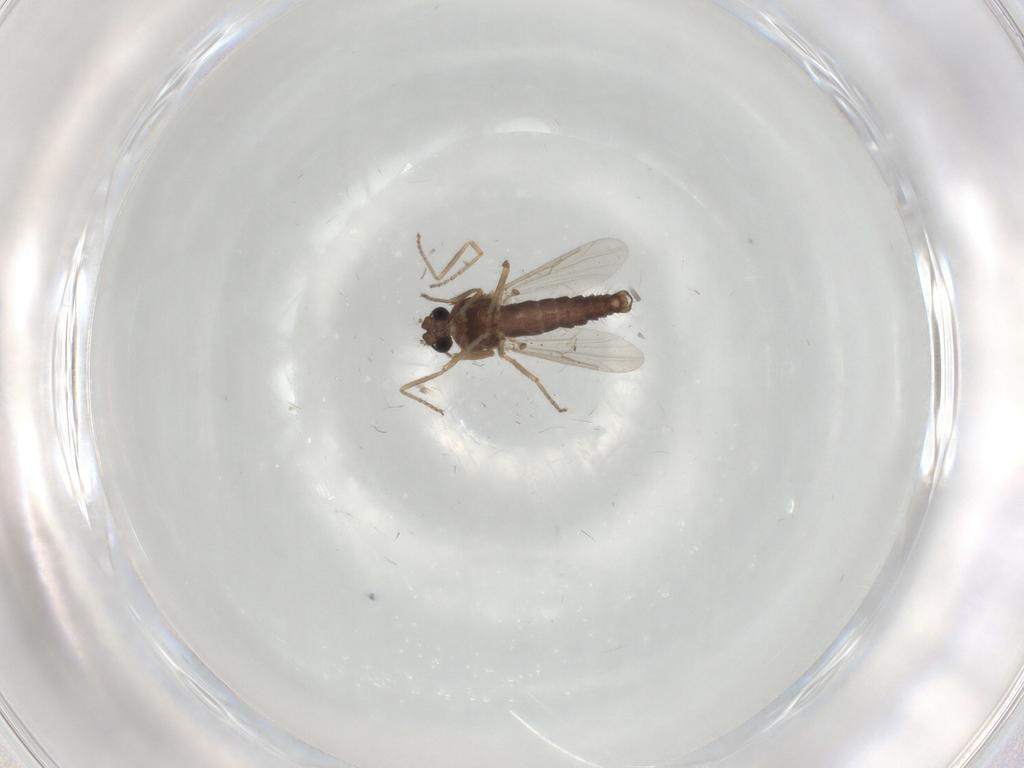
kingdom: Animalia
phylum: Arthropoda
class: Insecta
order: Diptera
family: Ceratopogonidae
